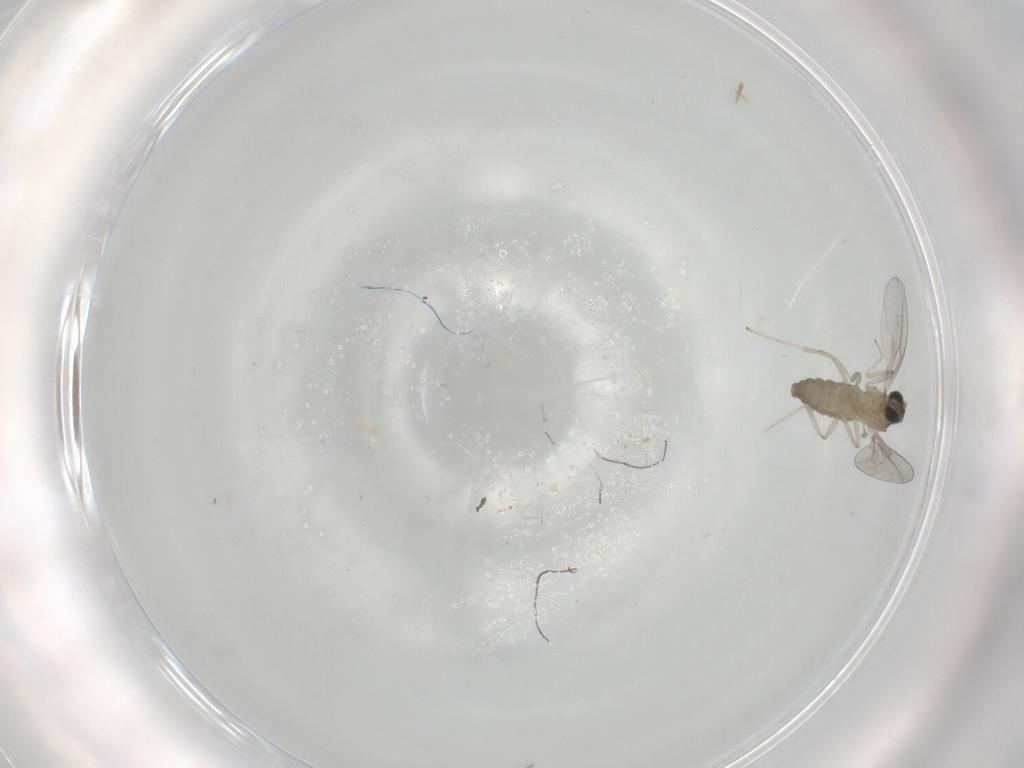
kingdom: Animalia
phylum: Arthropoda
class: Insecta
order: Diptera
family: Cecidomyiidae
